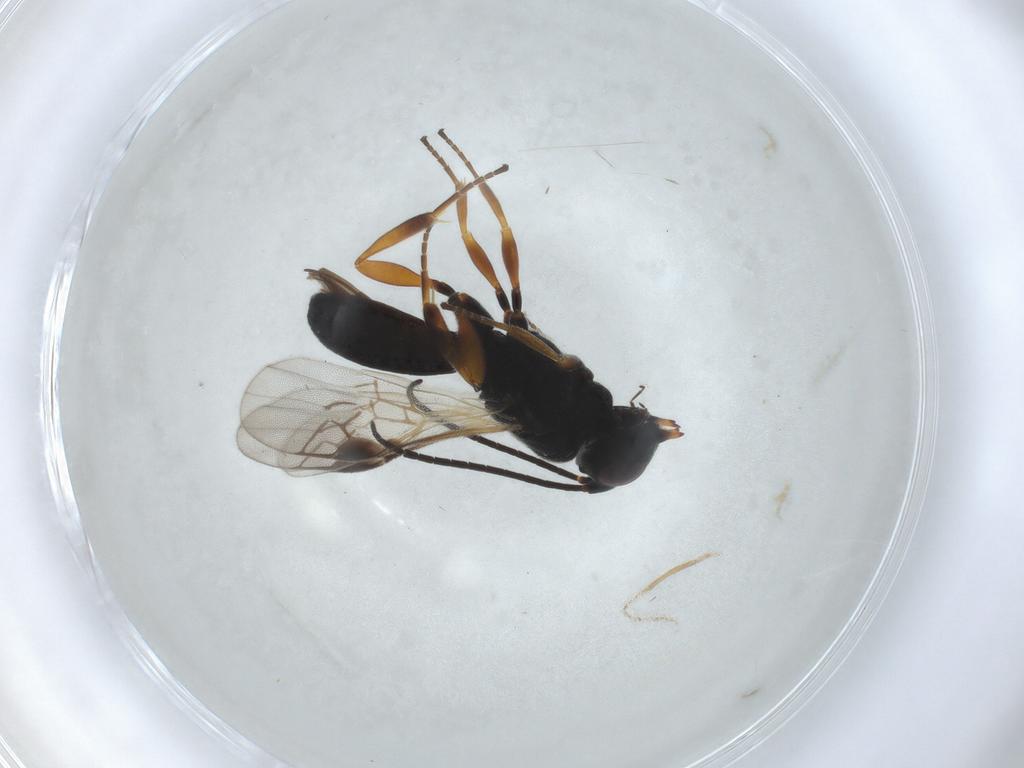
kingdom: Animalia
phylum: Arthropoda
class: Insecta
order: Hymenoptera
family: Braconidae
